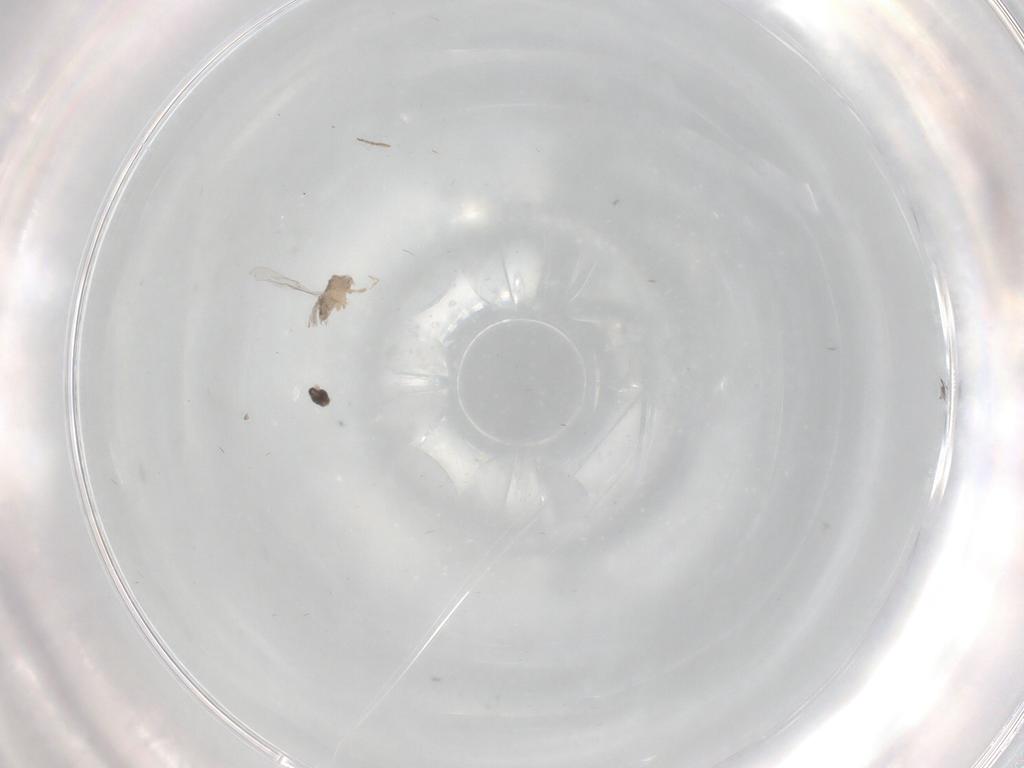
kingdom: Animalia
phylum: Arthropoda
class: Insecta
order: Diptera
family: Cecidomyiidae
